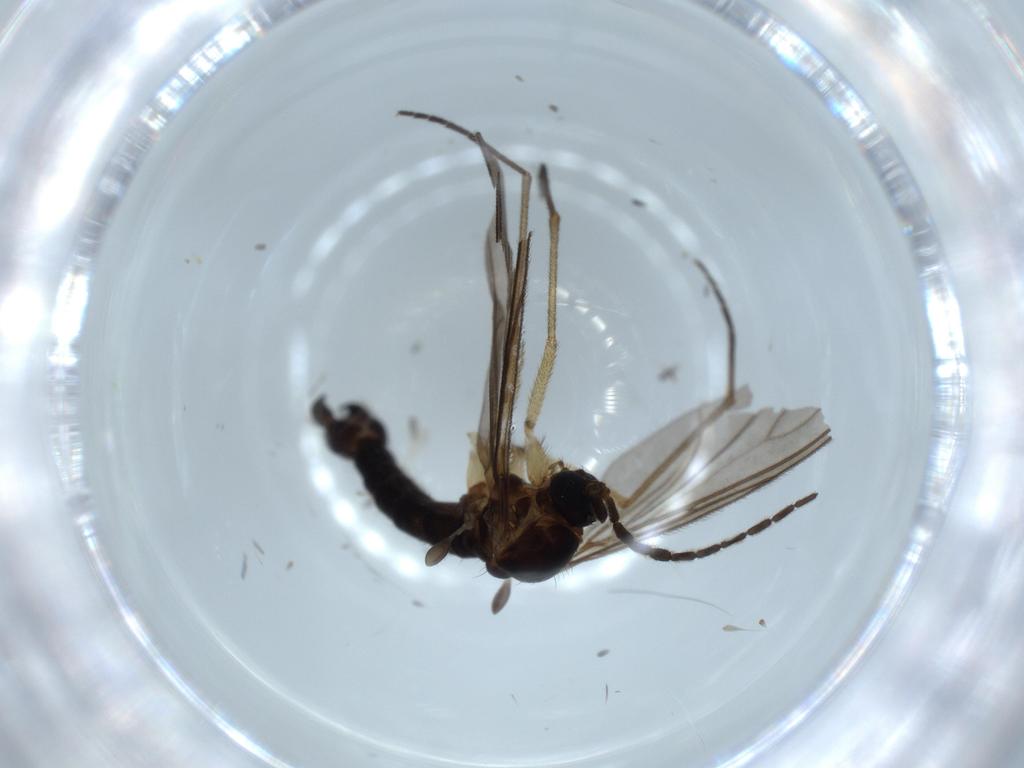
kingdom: Animalia
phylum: Arthropoda
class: Insecta
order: Diptera
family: Sciaridae
